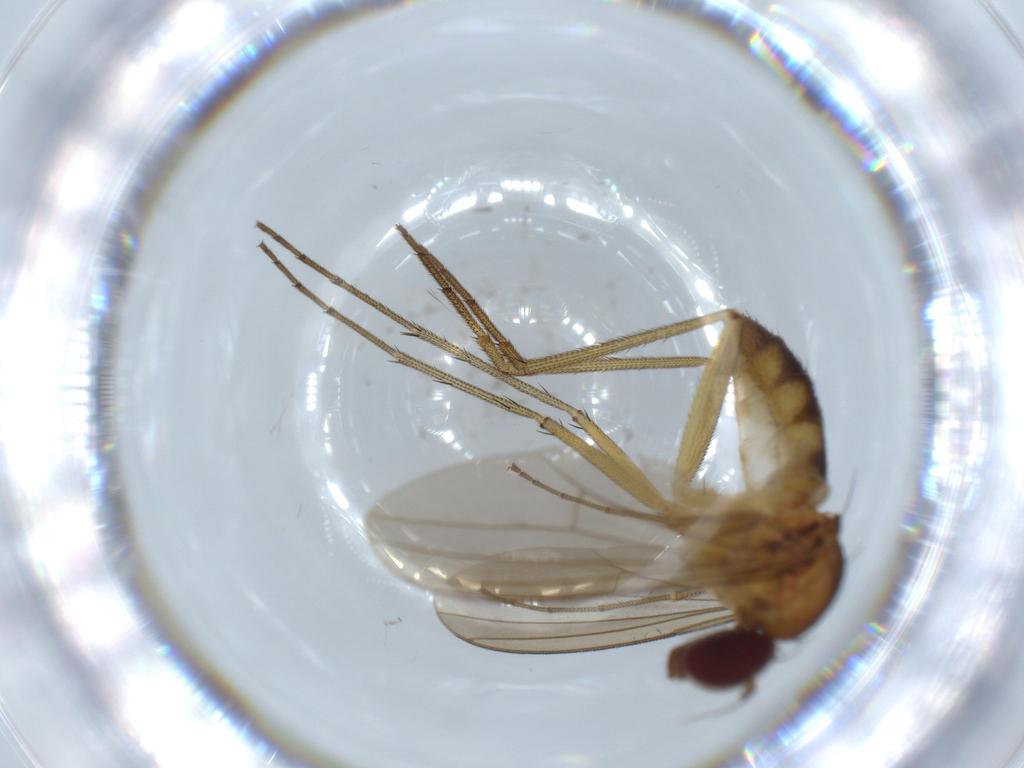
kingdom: Animalia
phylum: Arthropoda
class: Insecta
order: Diptera
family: Dolichopodidae
